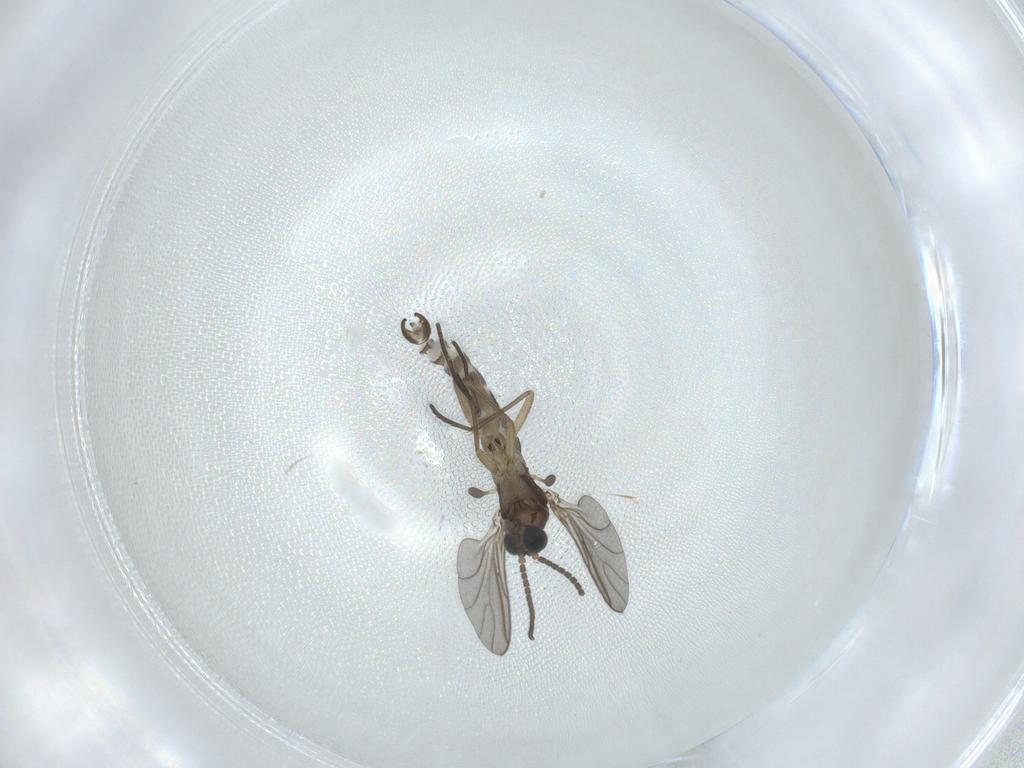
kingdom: Animalia
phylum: Arthropoda
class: Insecta
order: Diptera
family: Sciaridae
